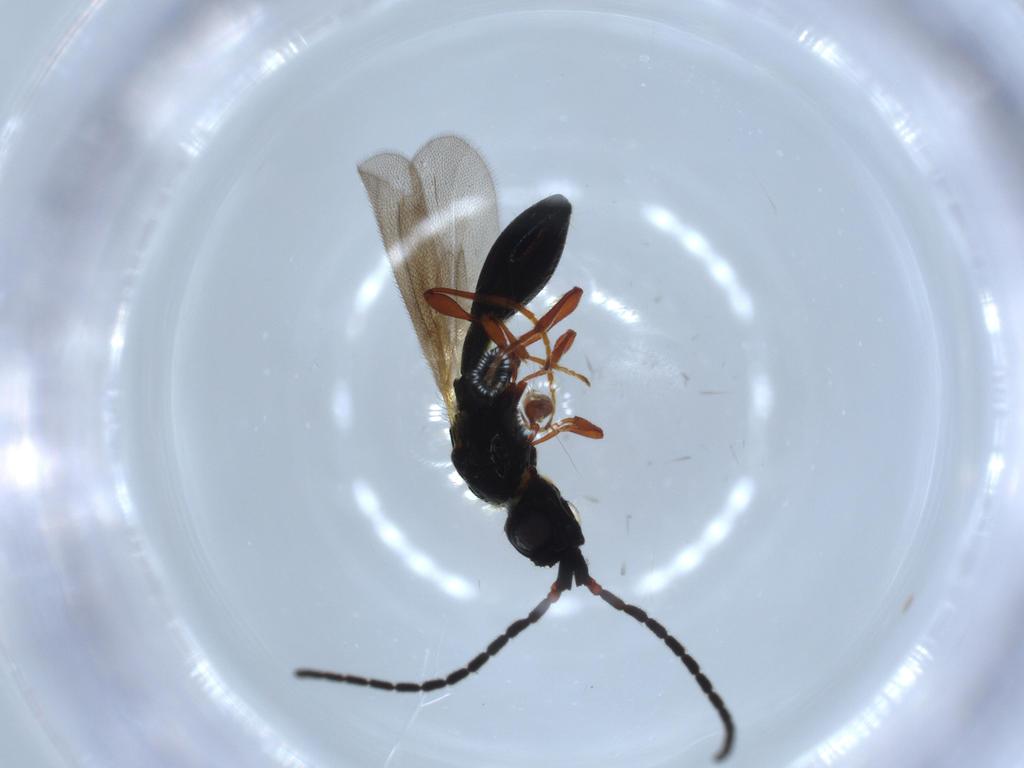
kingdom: Animalia
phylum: Arthropoda
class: Insecta
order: Hymenoptera
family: Diapriidae
